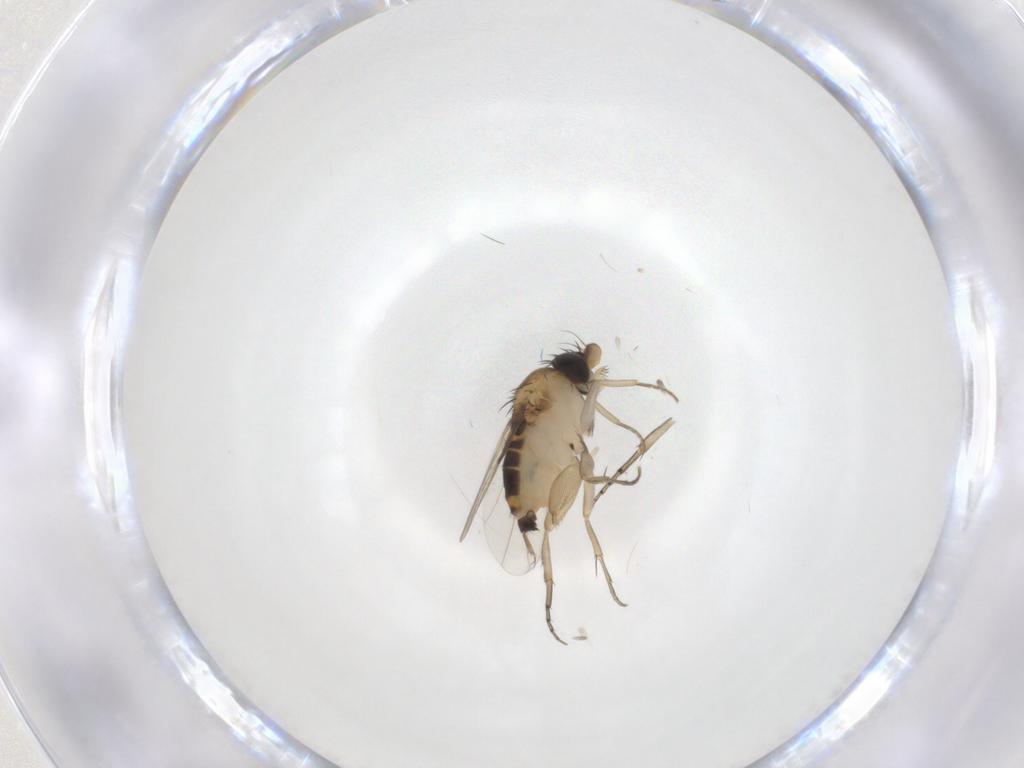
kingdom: Animalia
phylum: Arthropoda
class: Insecta
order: Diptera
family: Phoridae
